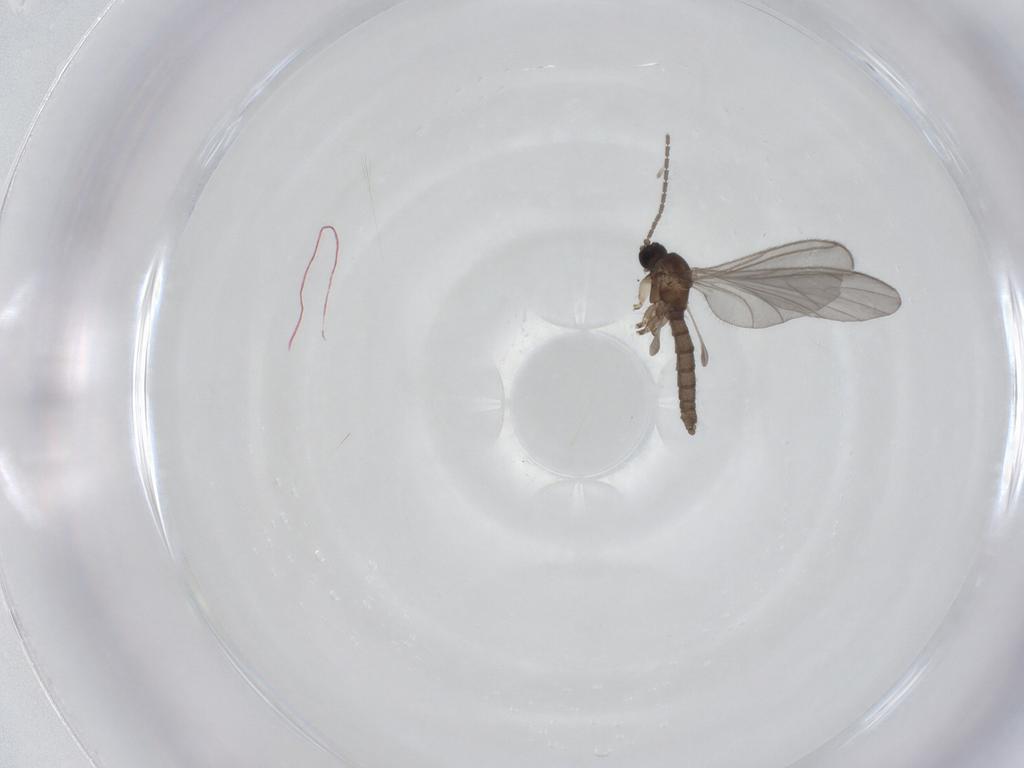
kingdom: Animalia
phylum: Arthropoda
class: Insecta
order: Diptera
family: Sciaridae
